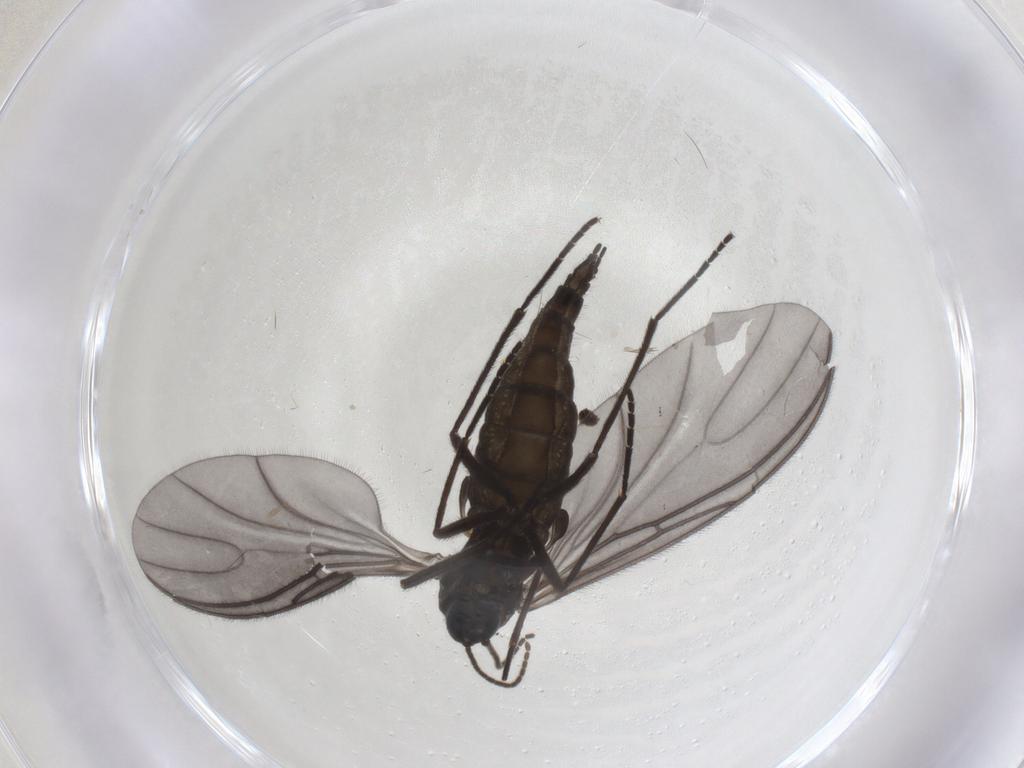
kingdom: Animalia
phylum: Arthropoda
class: Insecta
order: Diptera
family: Sciaridae
